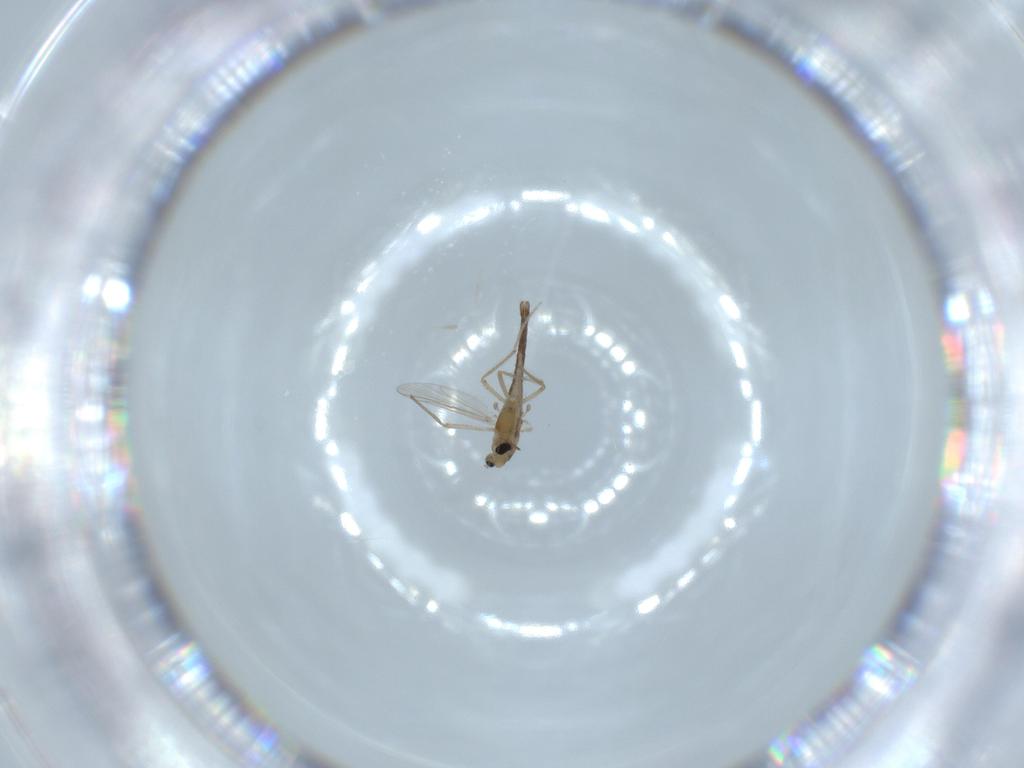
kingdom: Animalia
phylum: Arthropoda
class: Insecta
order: Diptera
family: Chironomidae
